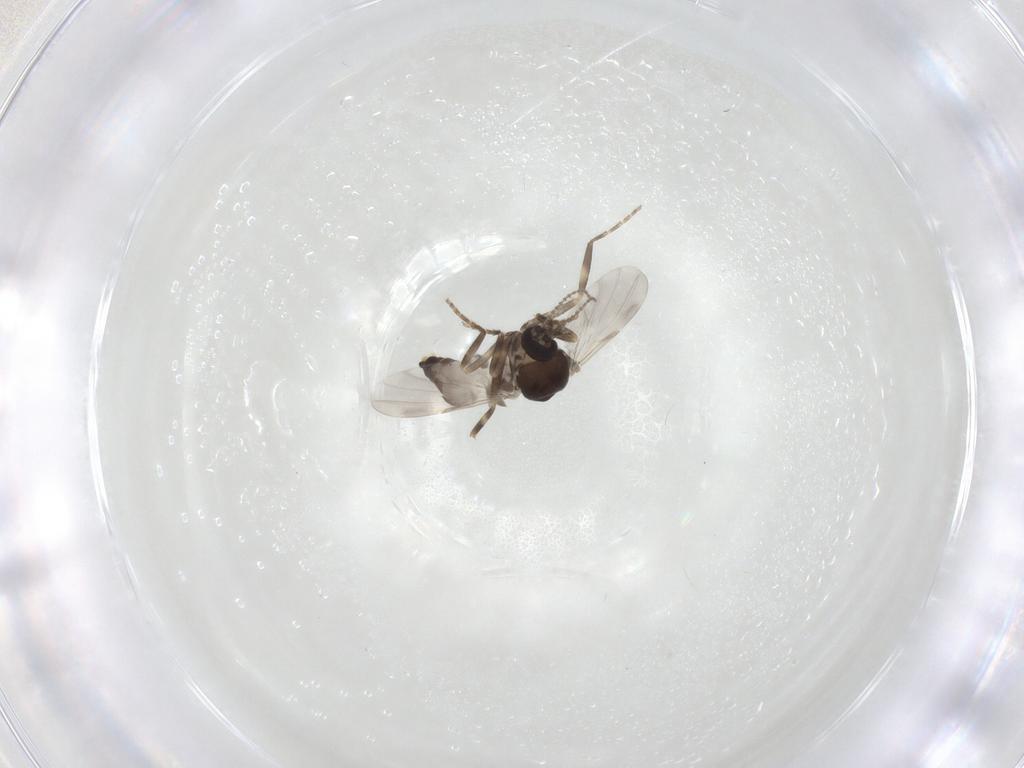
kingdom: Animalia
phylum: Arthropoda
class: Insecta
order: Diptera
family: Ceratopogonidae
